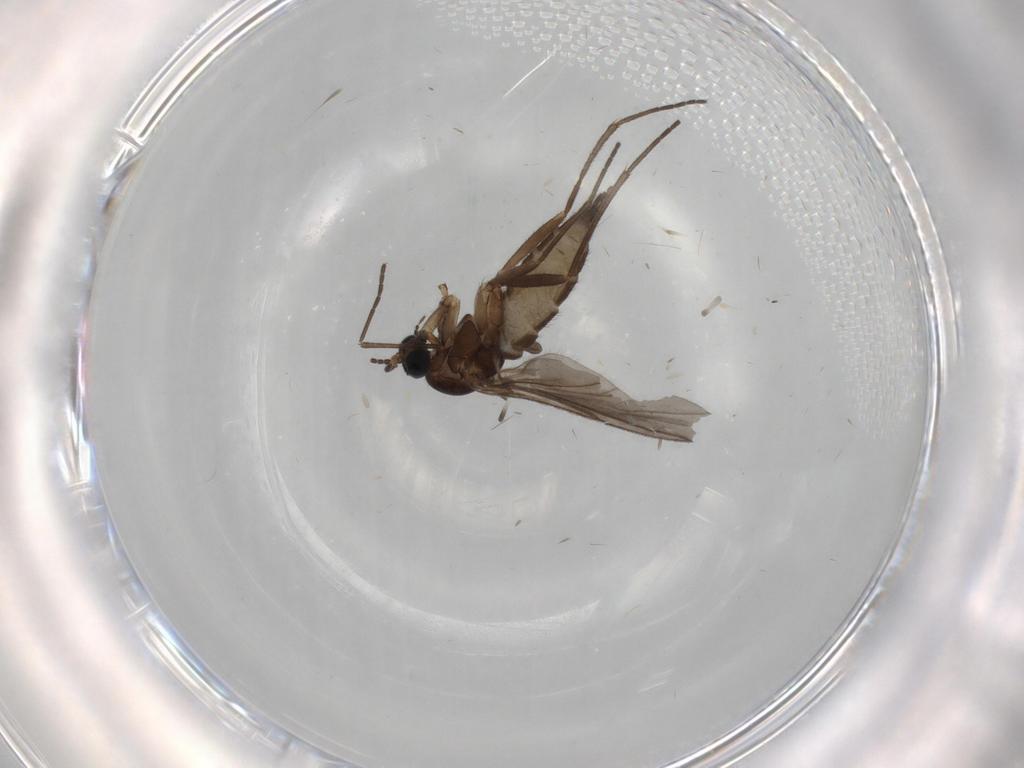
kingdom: Animalia
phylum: Arthropoda
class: Insecta
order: Diptera
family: Sciaridae
